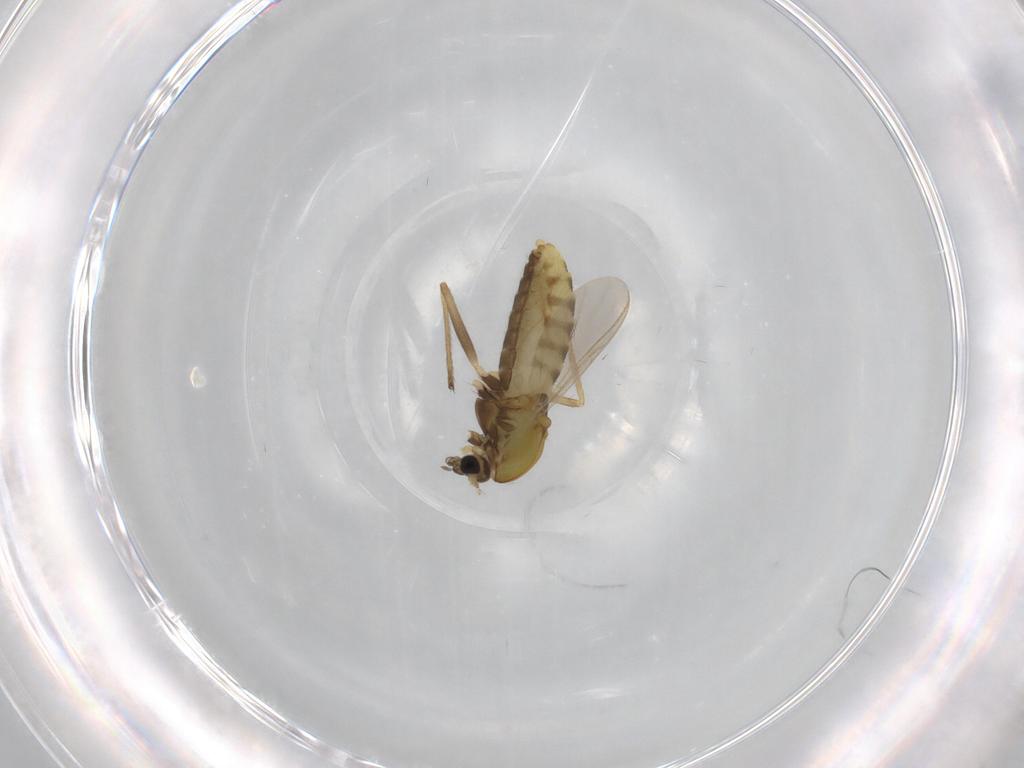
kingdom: Animalia
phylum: Arthropoda
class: Insecta
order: Diptera
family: Chironomidae
